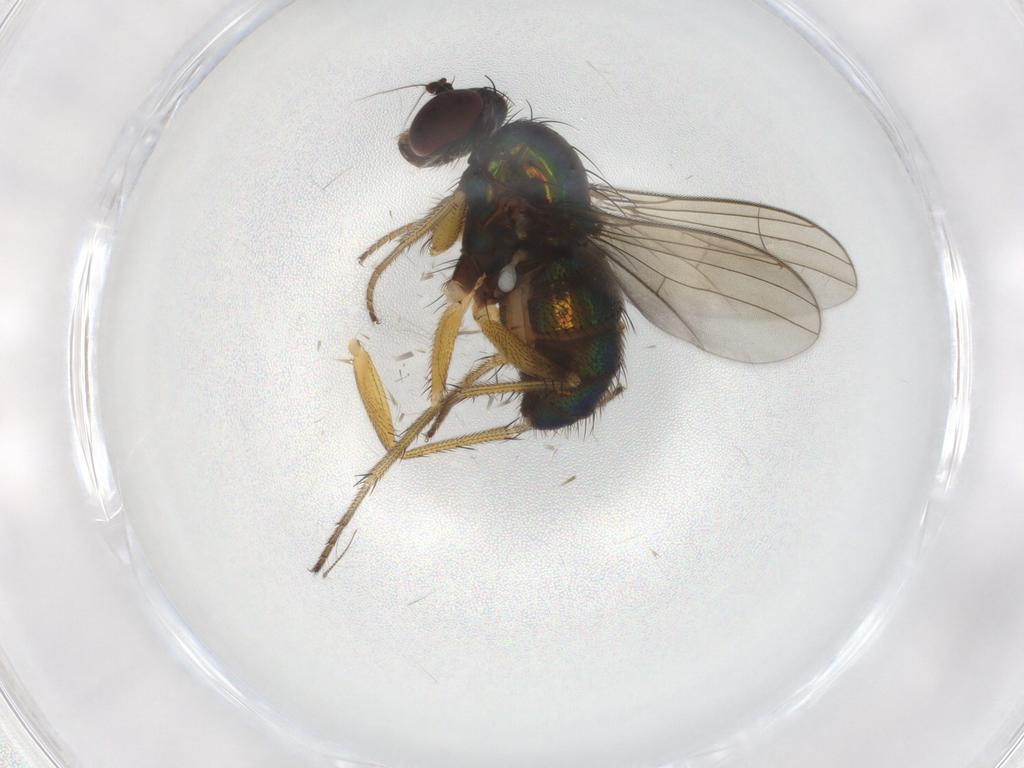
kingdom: Animalia
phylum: Arthropoda
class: Insecta
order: Diptera
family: Dolichopodidae
